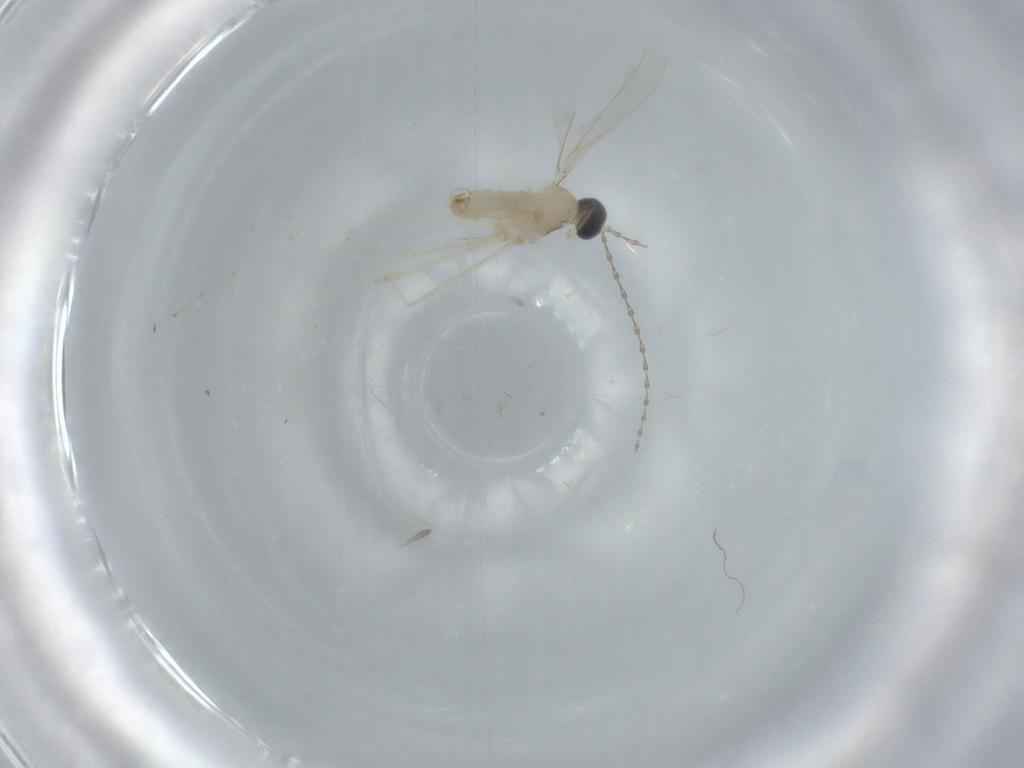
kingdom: Animalia
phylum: Arthropoda
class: Insecta
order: Diptera
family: Cecidomyiidae
